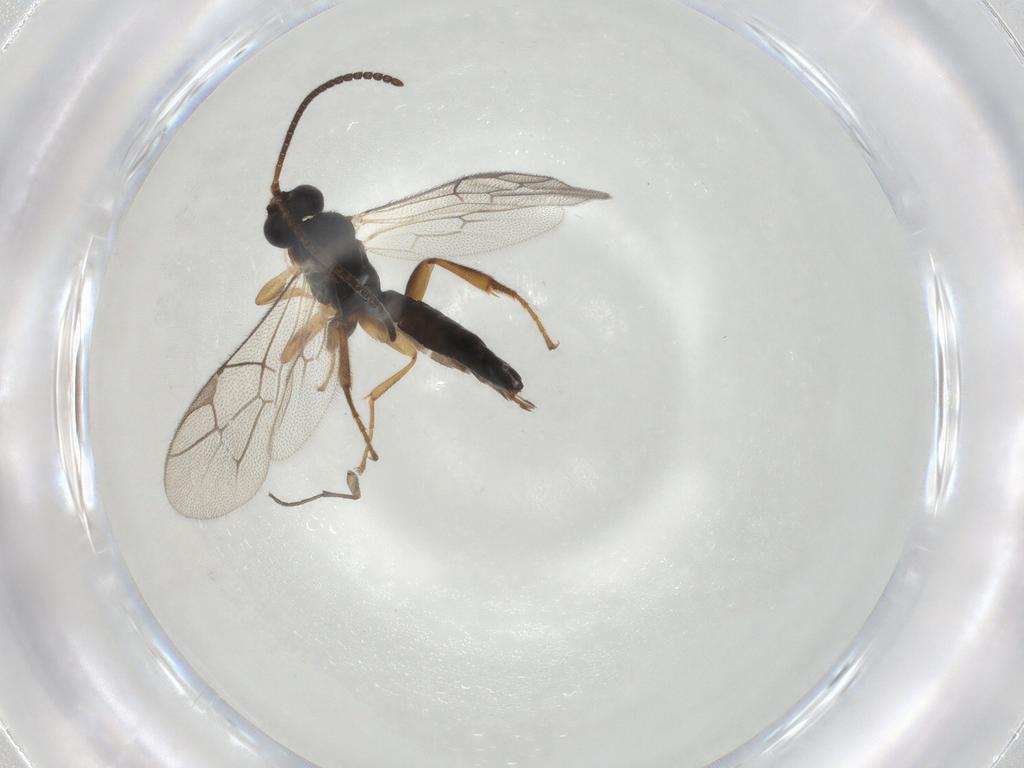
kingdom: Animalia
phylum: Arthropoda
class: Insecta
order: Hymenoptera
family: Ichneumonidae
